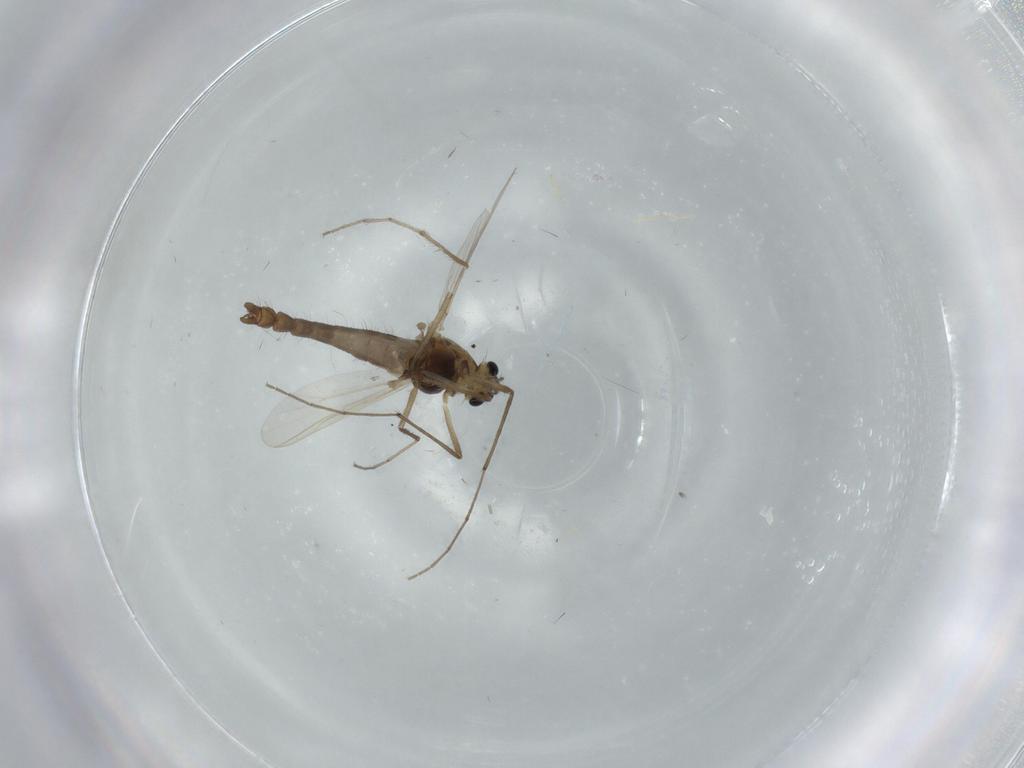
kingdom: Animalia
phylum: Arthropoda
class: Insecta
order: Diptera
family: Chironomidae
